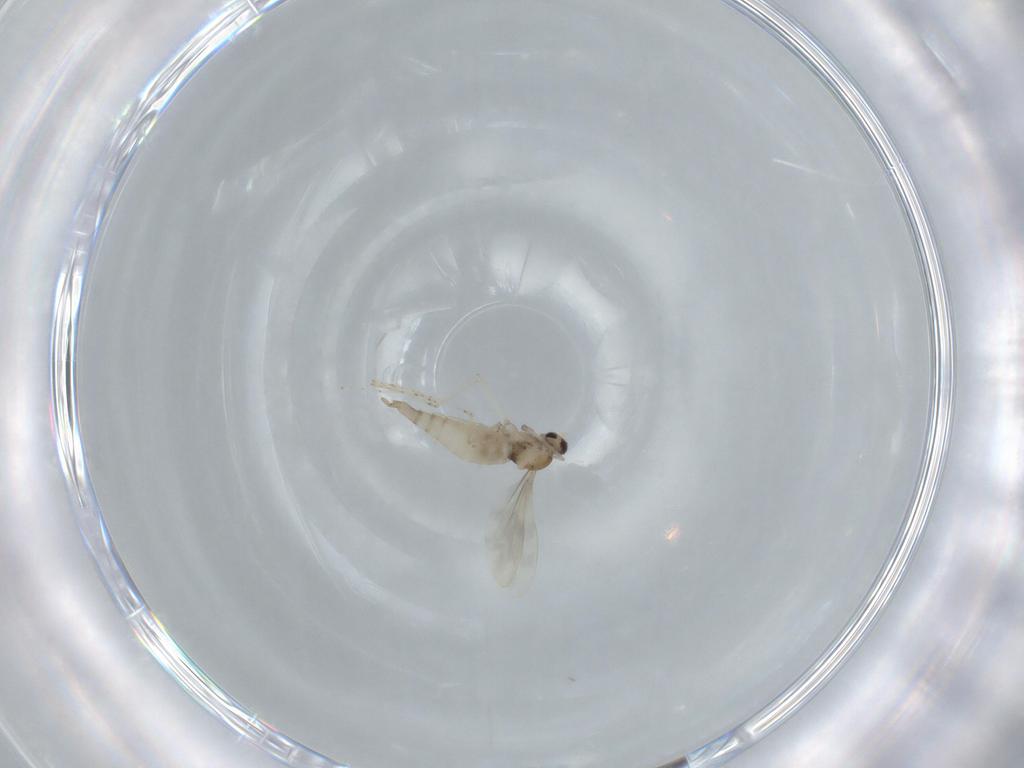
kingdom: Animalia
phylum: Arthropoda
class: Insecta
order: Diptera
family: Cecidomyiidae
